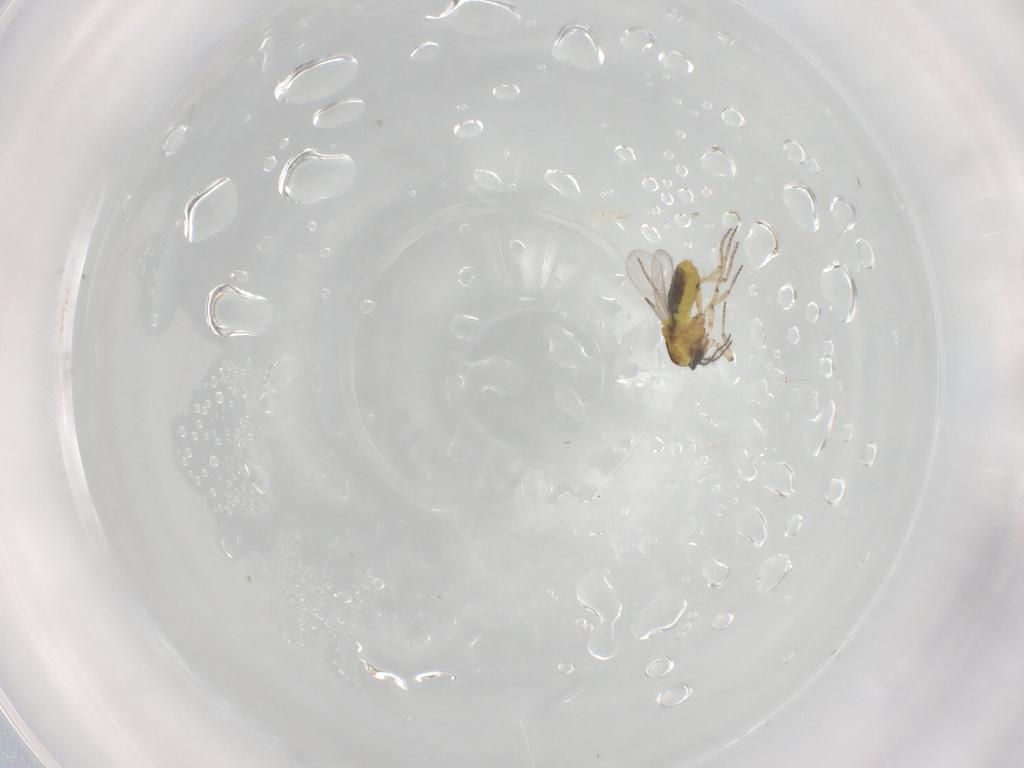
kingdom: Animalia
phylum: Arthropoda
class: Insecta
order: Diptera
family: Ceratopogonidae
